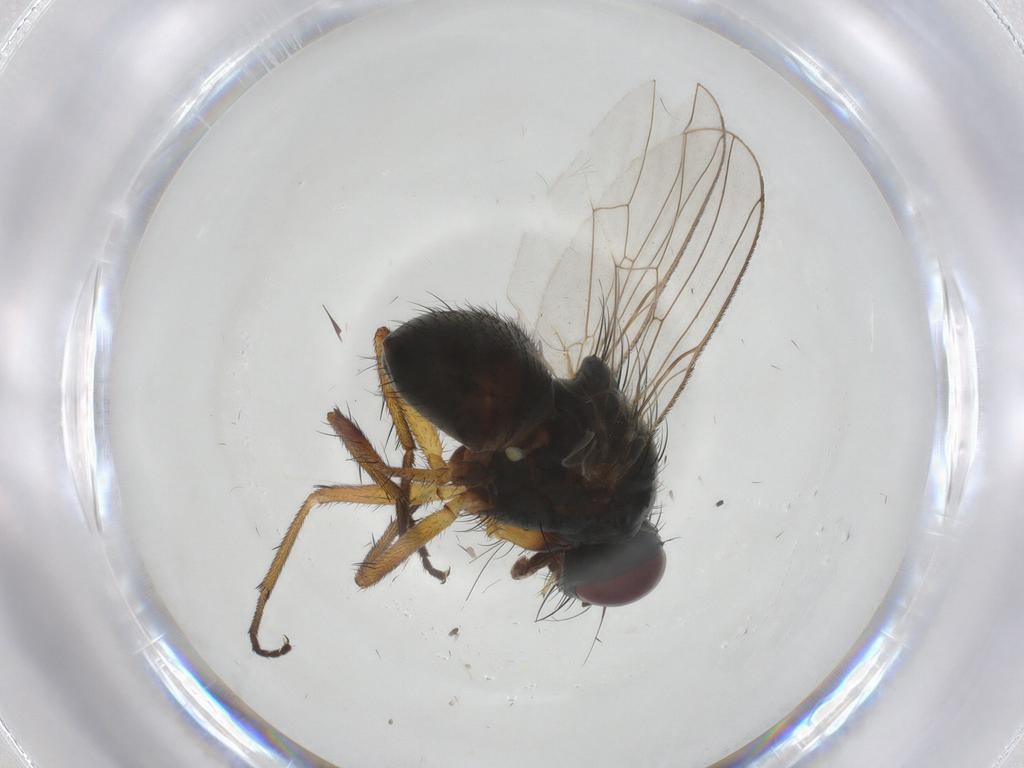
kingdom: Animalia
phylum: Arthropoda
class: Insecta
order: Diptera
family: Muscidae
